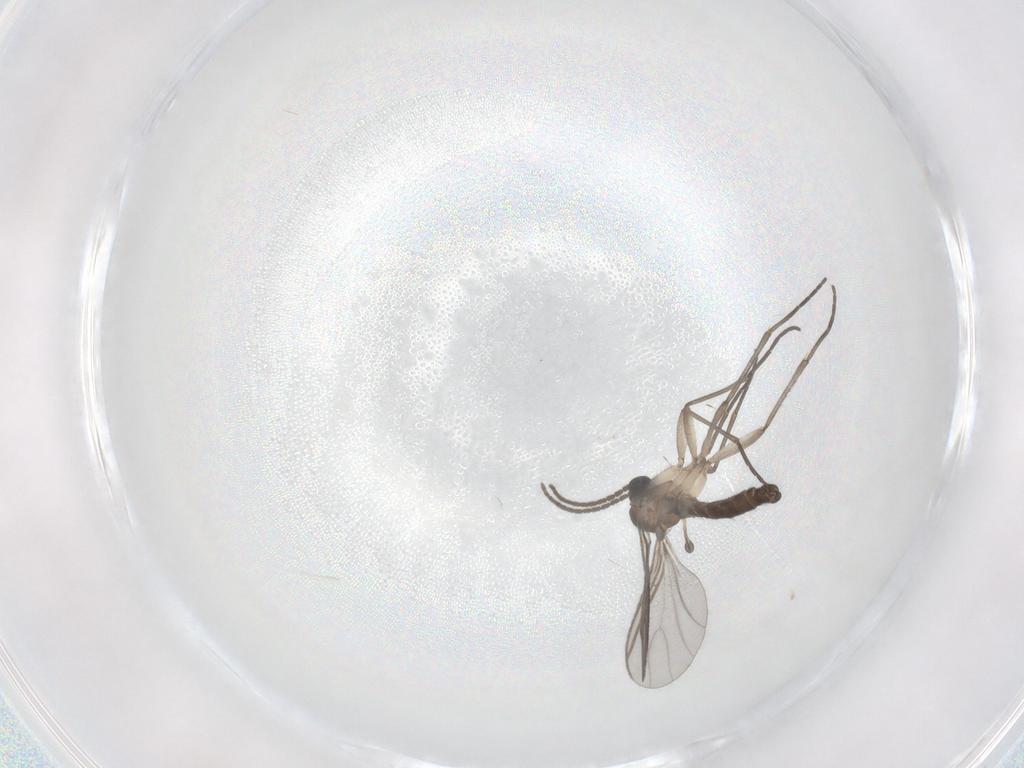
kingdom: Animalia
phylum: Arthropoda
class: Insecta
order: Diptera
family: Sciaridae
